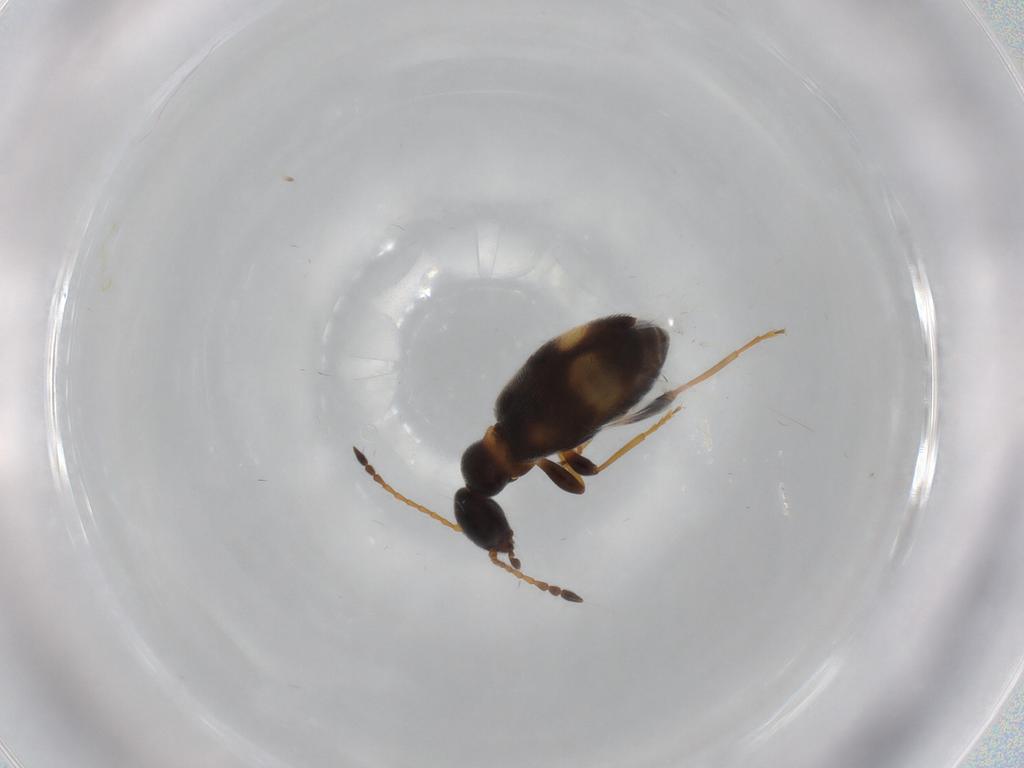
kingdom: Animalia
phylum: Arthropoda
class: Insecta
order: Coleoptera
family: Anthicidae
